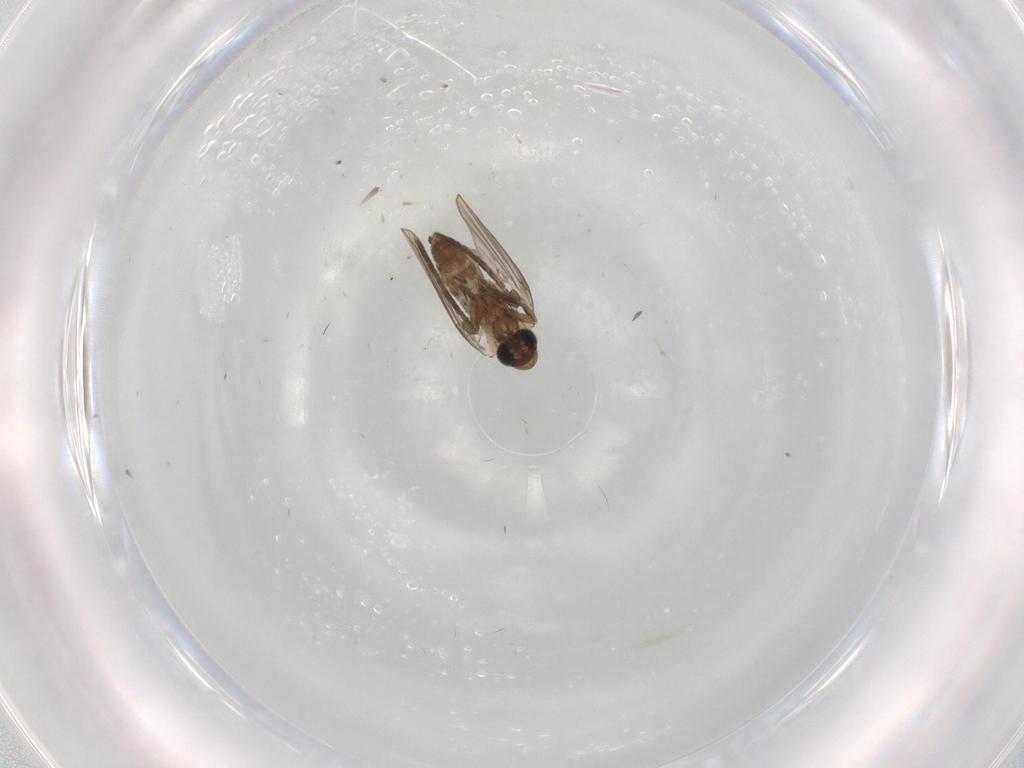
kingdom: Animalia
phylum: Arthropoda
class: Insecta
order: Diptera
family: Psychodidae
